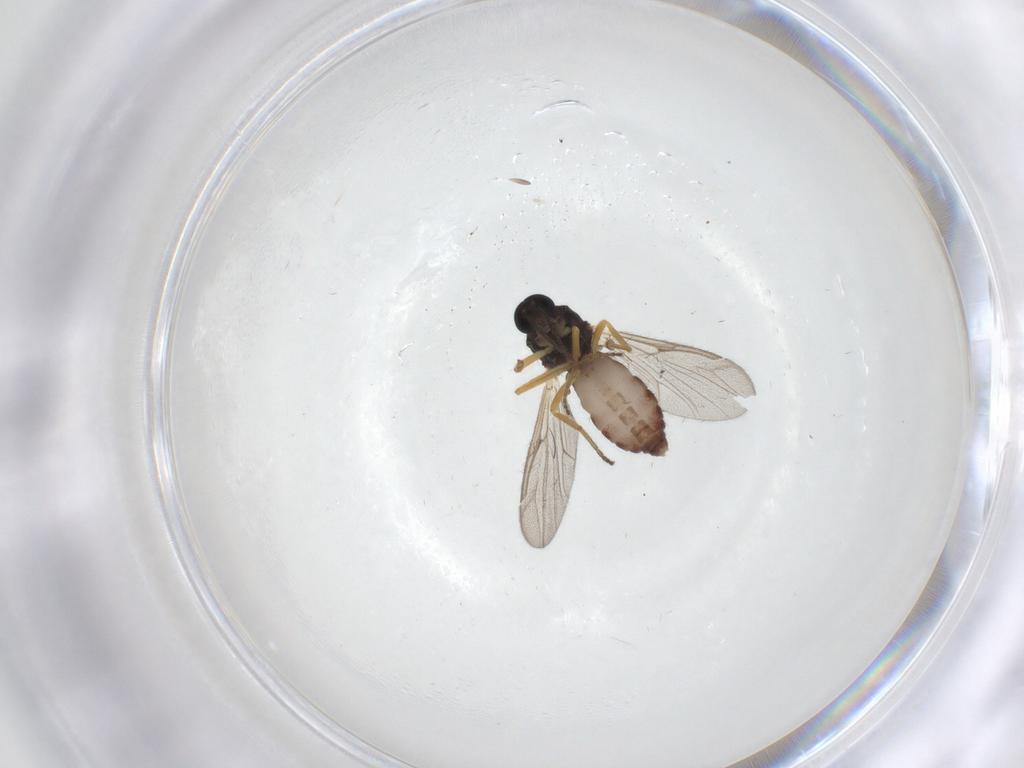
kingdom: Animalia
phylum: Arthropoda
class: Insecta
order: Diptera
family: Ceratopogonidae
